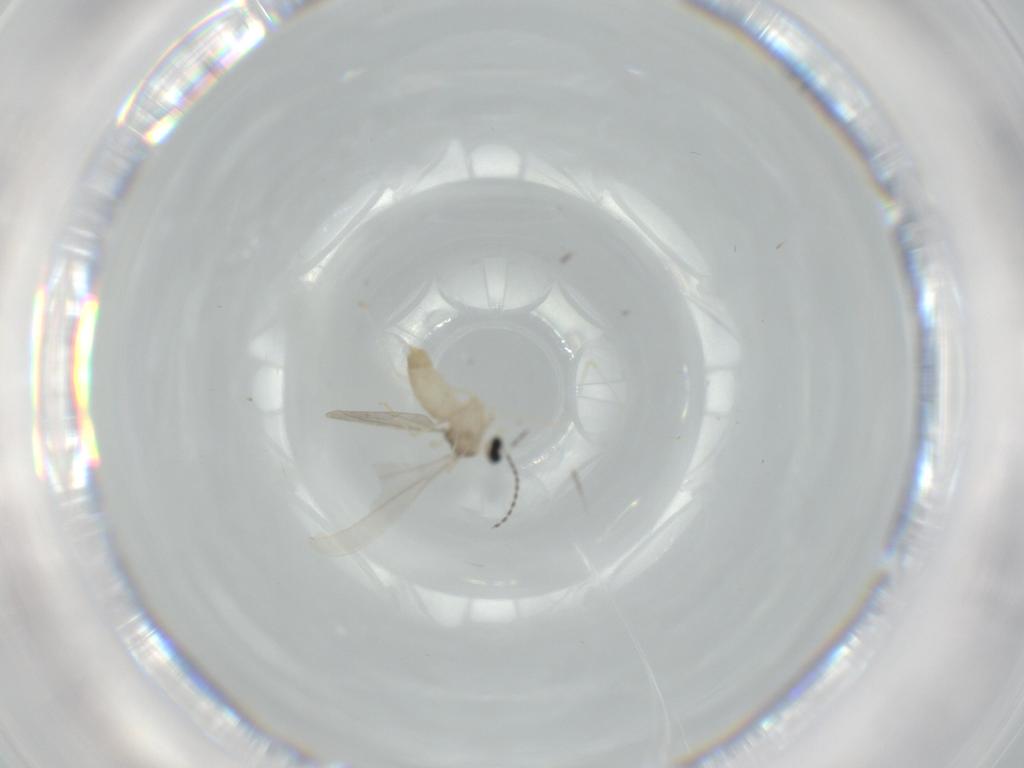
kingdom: Animalia
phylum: Arthropoda
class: Insecta
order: Diptera
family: Cecidomyiidae
